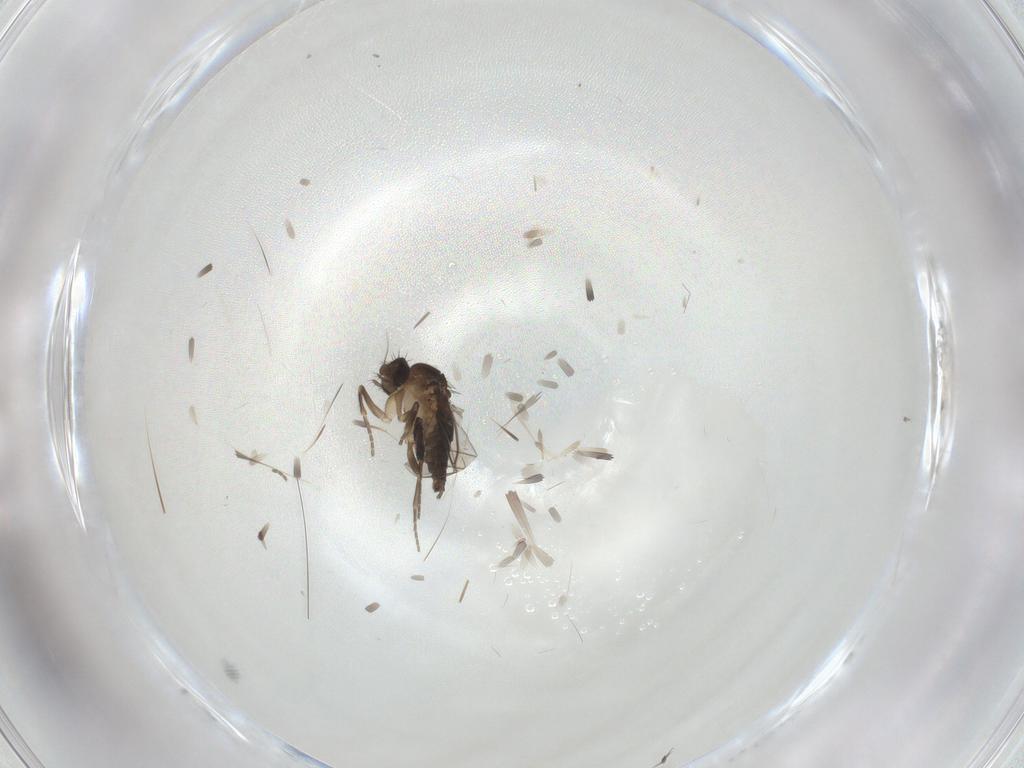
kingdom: Animalia
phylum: Arthropoda
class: Insecta
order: Diptera
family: Phoridae
